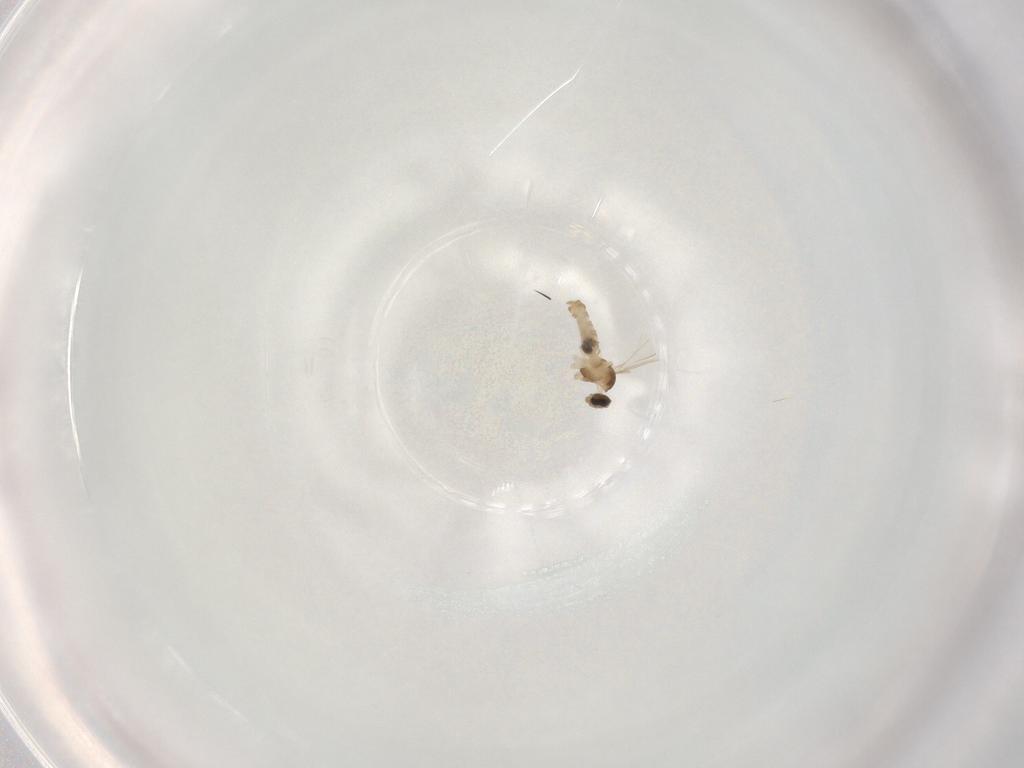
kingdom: Animalia
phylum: Arthropoda
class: Insecta
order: Diptera
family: Cecidomyiidae
